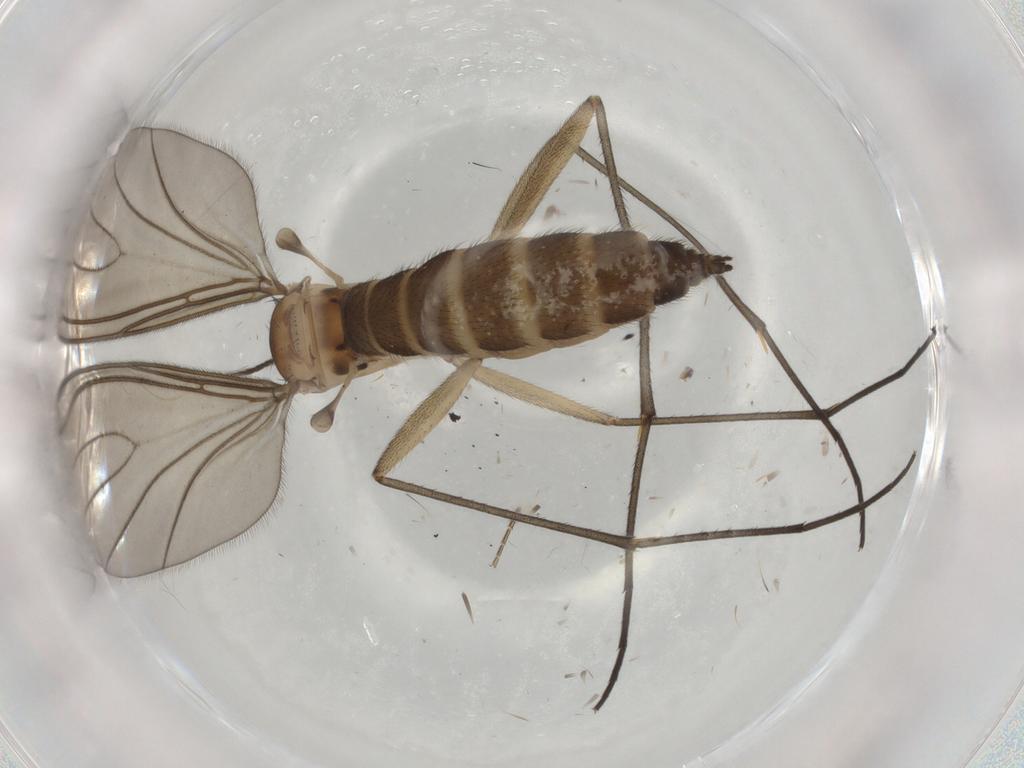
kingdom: Animalia
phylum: Arthropoda
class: Insecta
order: Diptera
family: Sciaridae
